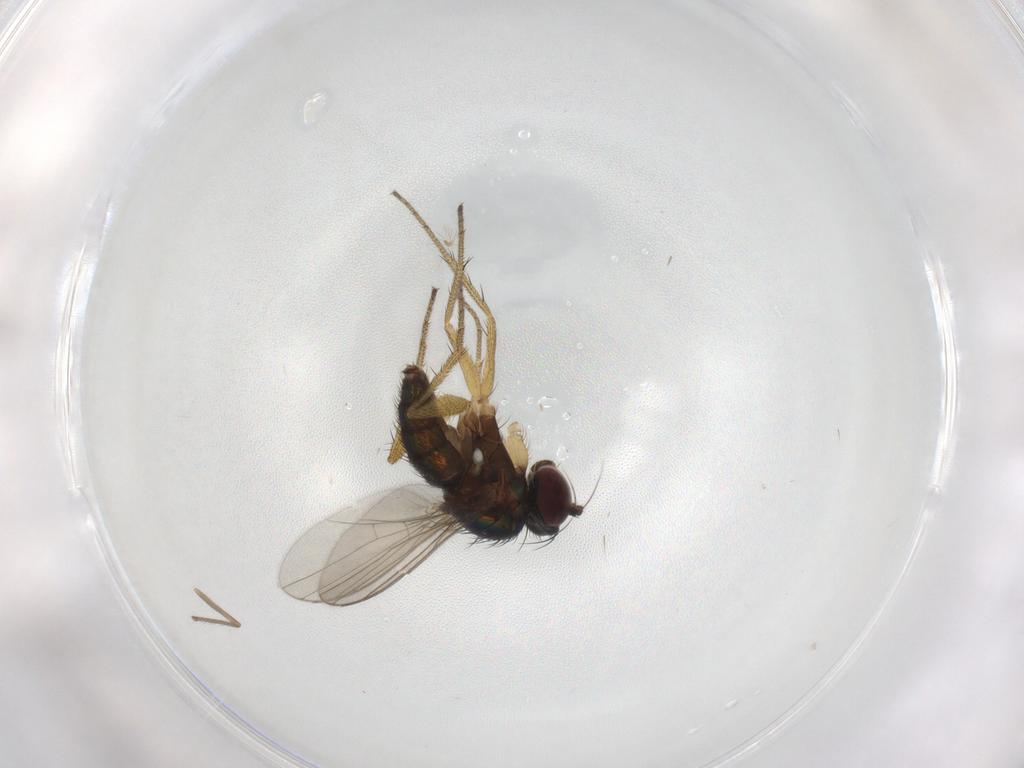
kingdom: Animalia
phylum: Arthropoda
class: Insecta
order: Diptera
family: Dolichopodidae
